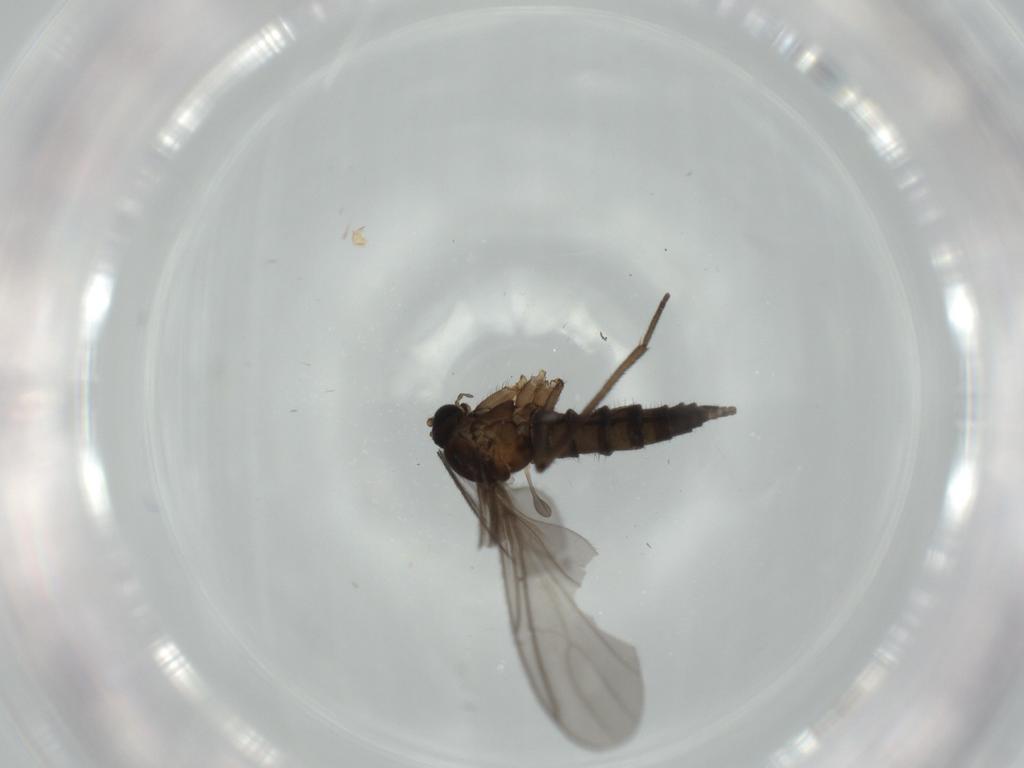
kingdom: Animalia
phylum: Arthropoda
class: Insecta
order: Diptera
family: Sciaridae
